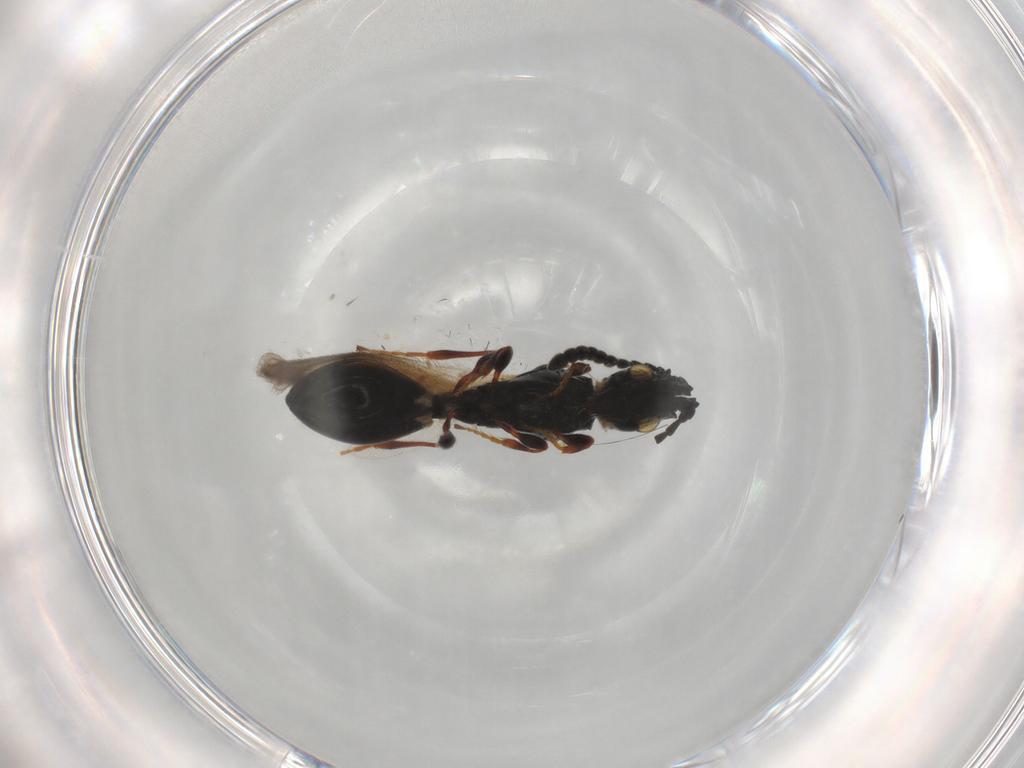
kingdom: Animalia
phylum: Arthropoda
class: Insecta
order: Hymenoptera
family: Diapriidae
